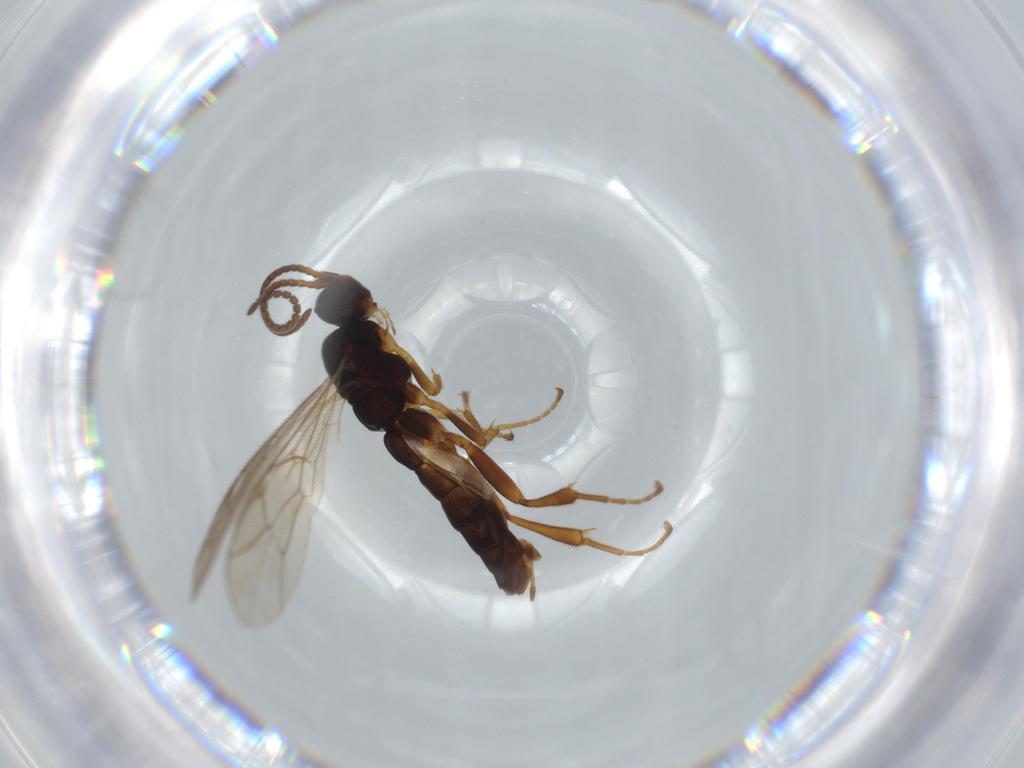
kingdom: Animalia
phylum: Arthropoda
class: Insecta
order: Hymenoptera
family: Ichneumonidae
